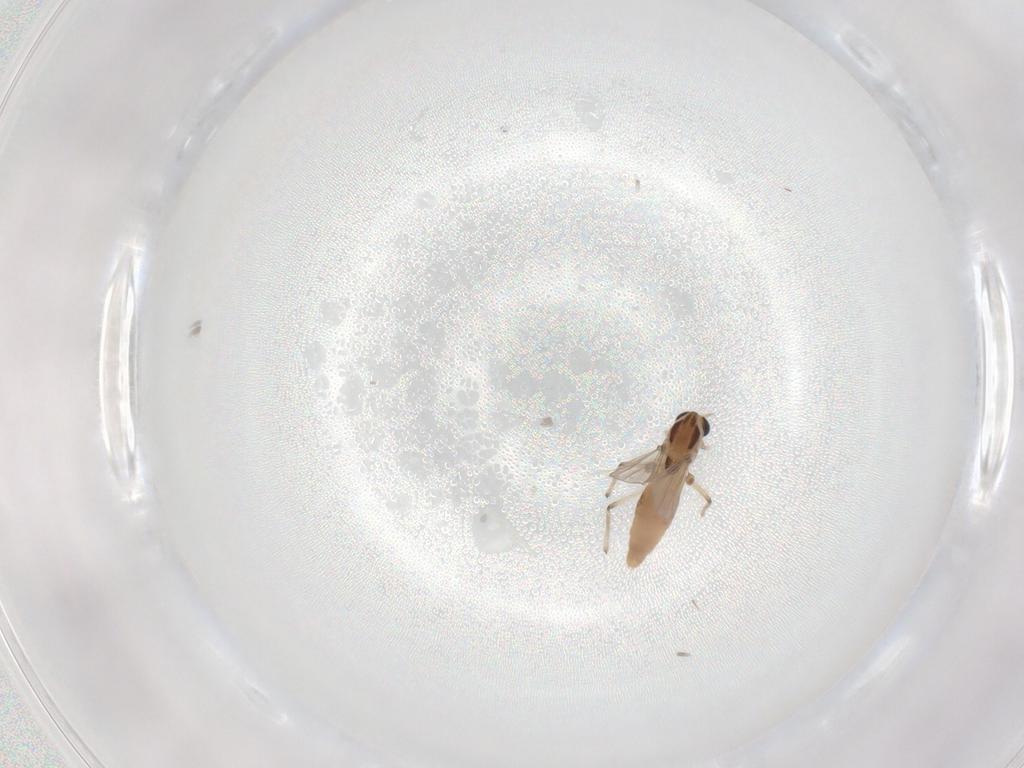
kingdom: Animalia
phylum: Arthropoda
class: Insecta
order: Diptera
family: Chironomidae
